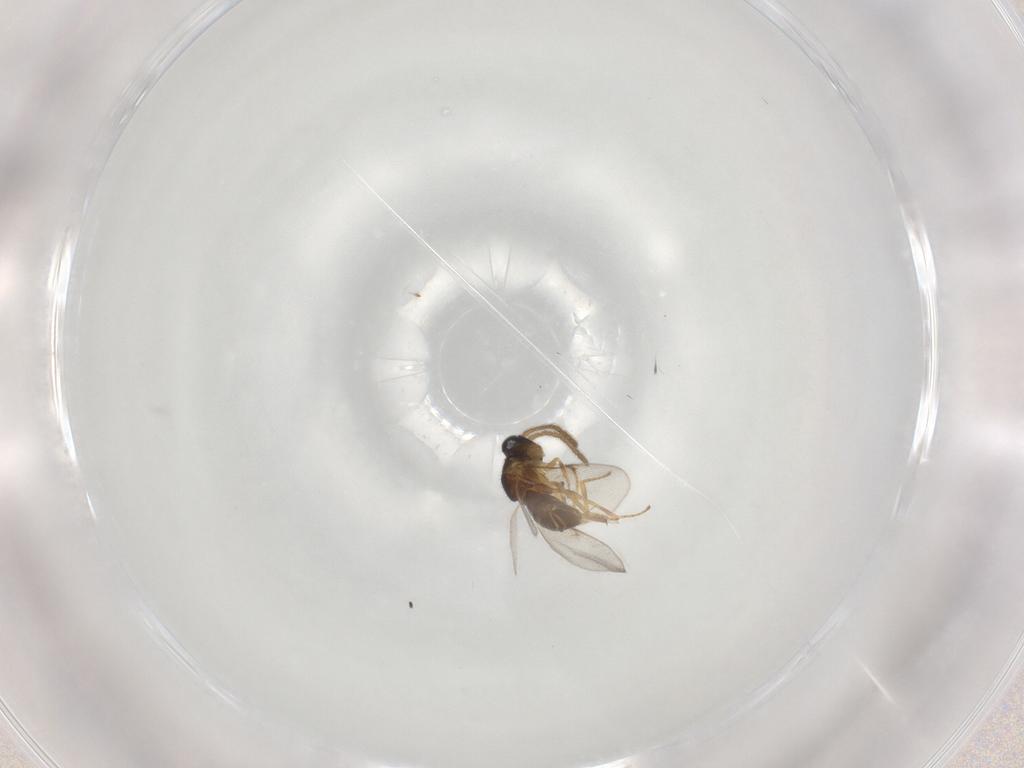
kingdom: Animalia
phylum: Arthropoda
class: Insecta
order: Hymenoptera
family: Encyrtidae
